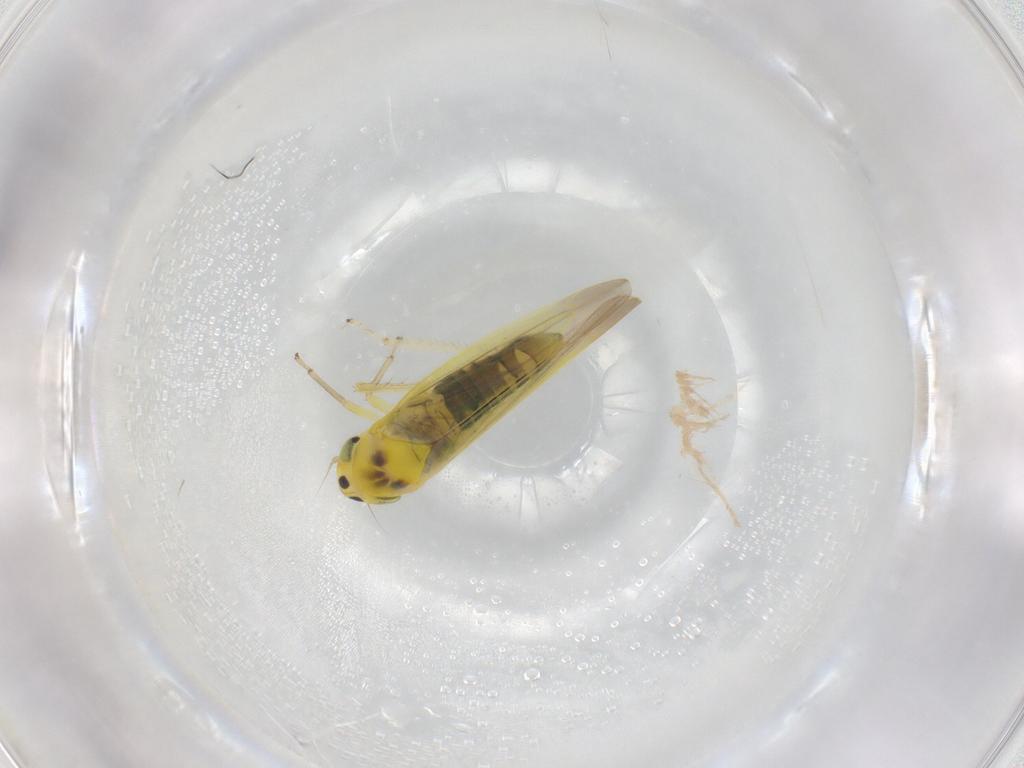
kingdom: Animalia
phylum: Arthropoda
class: Insecta
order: Hemiptera
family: Cicadellidae
